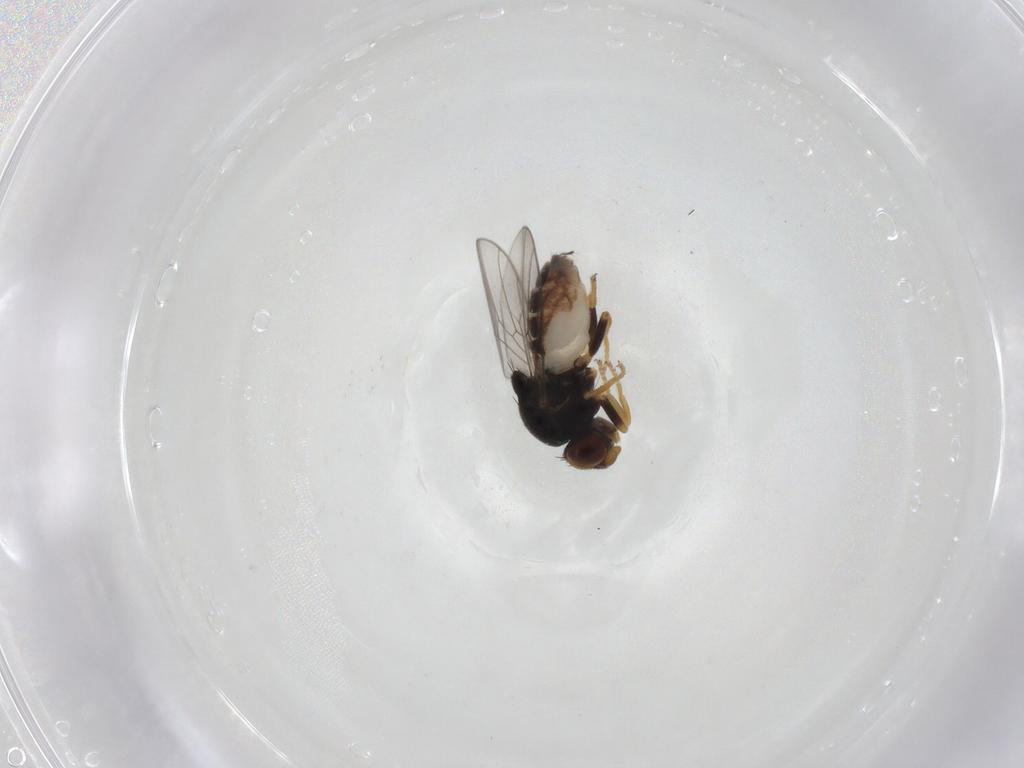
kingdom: Animalia
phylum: Arthropoda
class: Insecta
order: Diptera
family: Chloropidae
